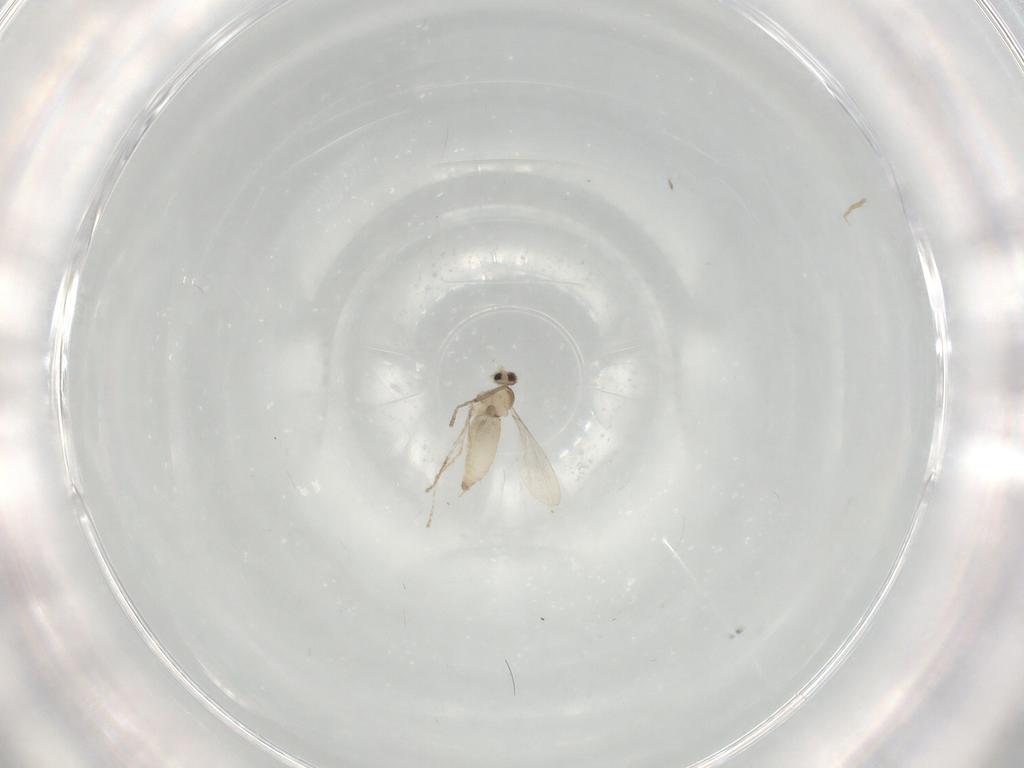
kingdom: Animalia
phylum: Arthropoda
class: Insecta
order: Diptera
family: Cecidomyiidae
